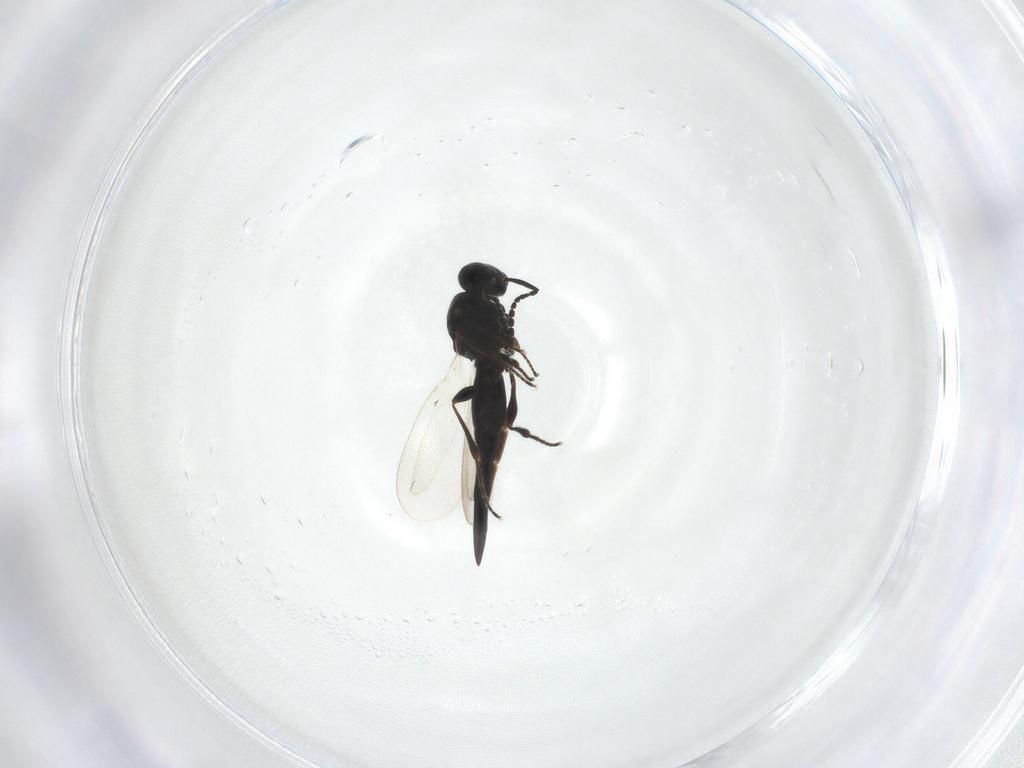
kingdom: Animalia
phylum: Arthropoda
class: Insecta
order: Hymenoptera
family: Platygastridae
